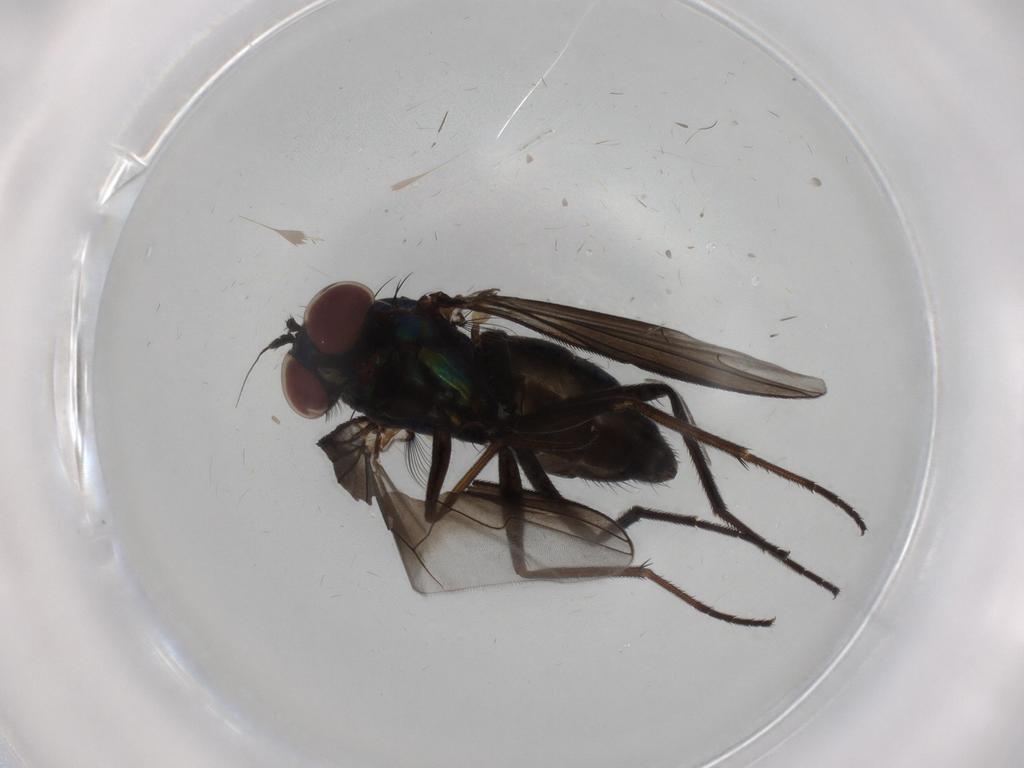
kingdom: Animalia
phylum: Arthropoda
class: Insecta
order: Diptera
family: Dolichopodidae
